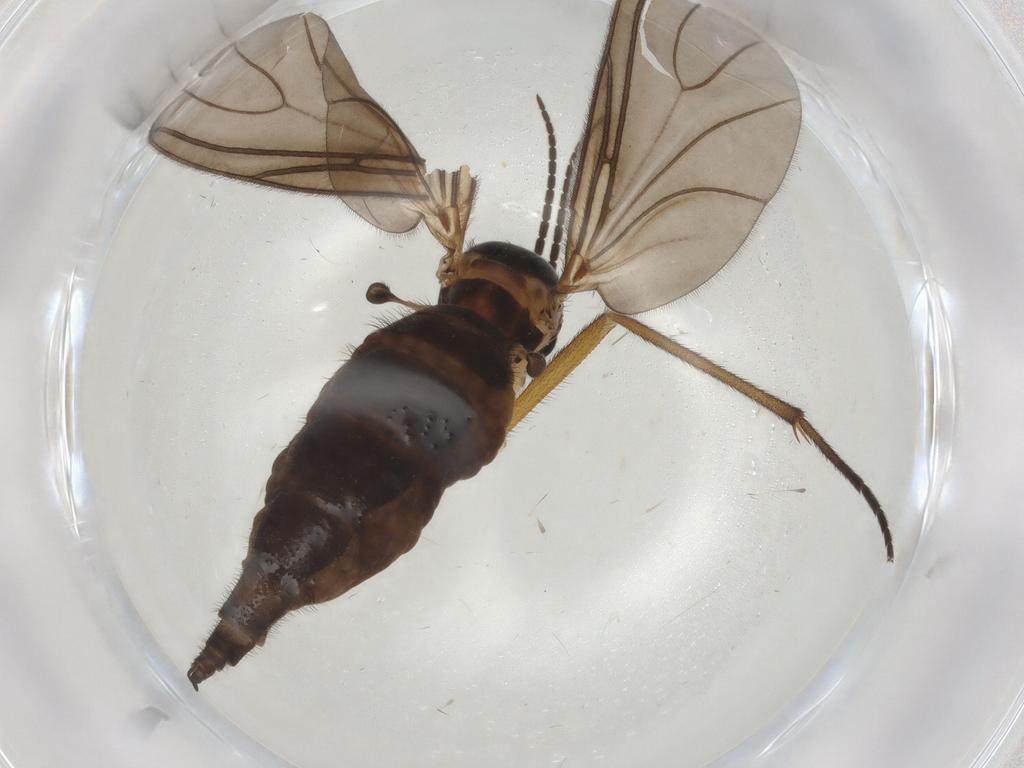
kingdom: Animalia
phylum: Arthropoda
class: Insecta
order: Diptera
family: Sciaridae
